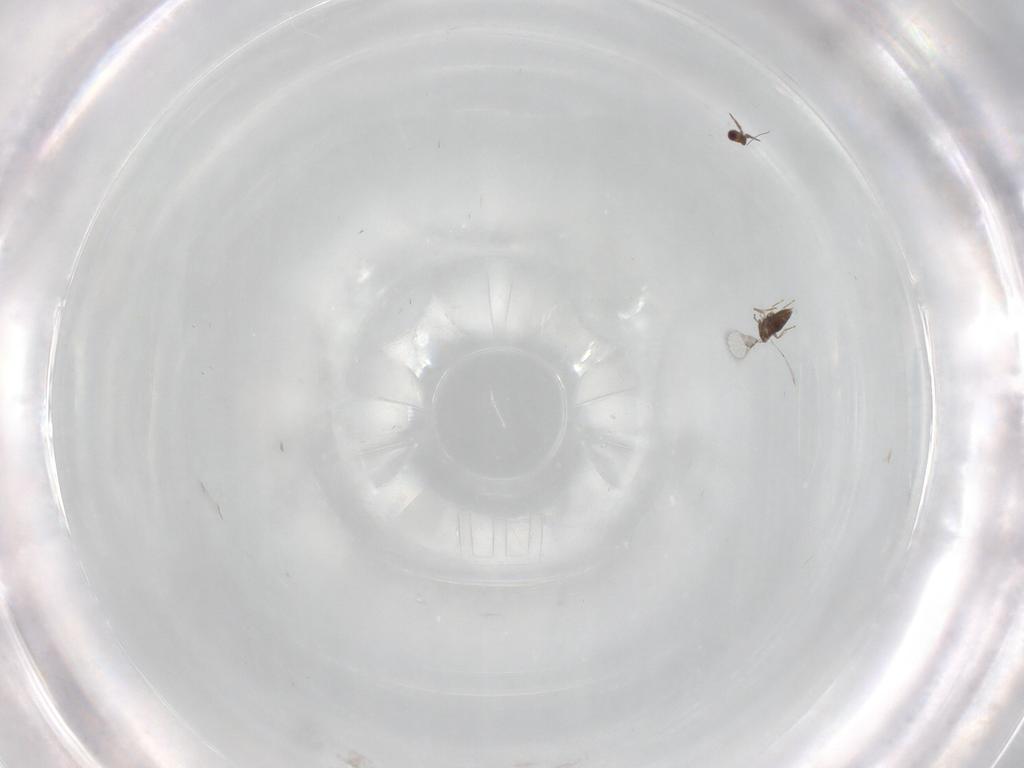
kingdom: Animalia
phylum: Arthropoda
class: Insecta
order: Hymenoptera
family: Trichogrammatidae
